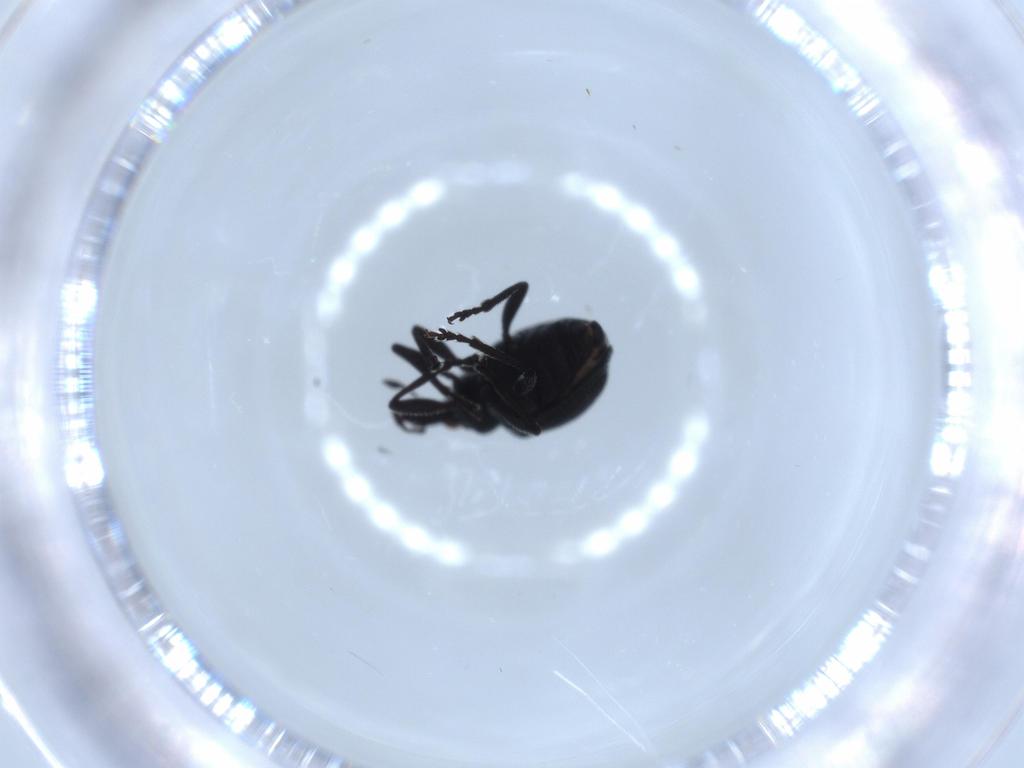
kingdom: Animalia
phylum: Arthropoda
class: Insecta
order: Coleoptera
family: Brentidae
